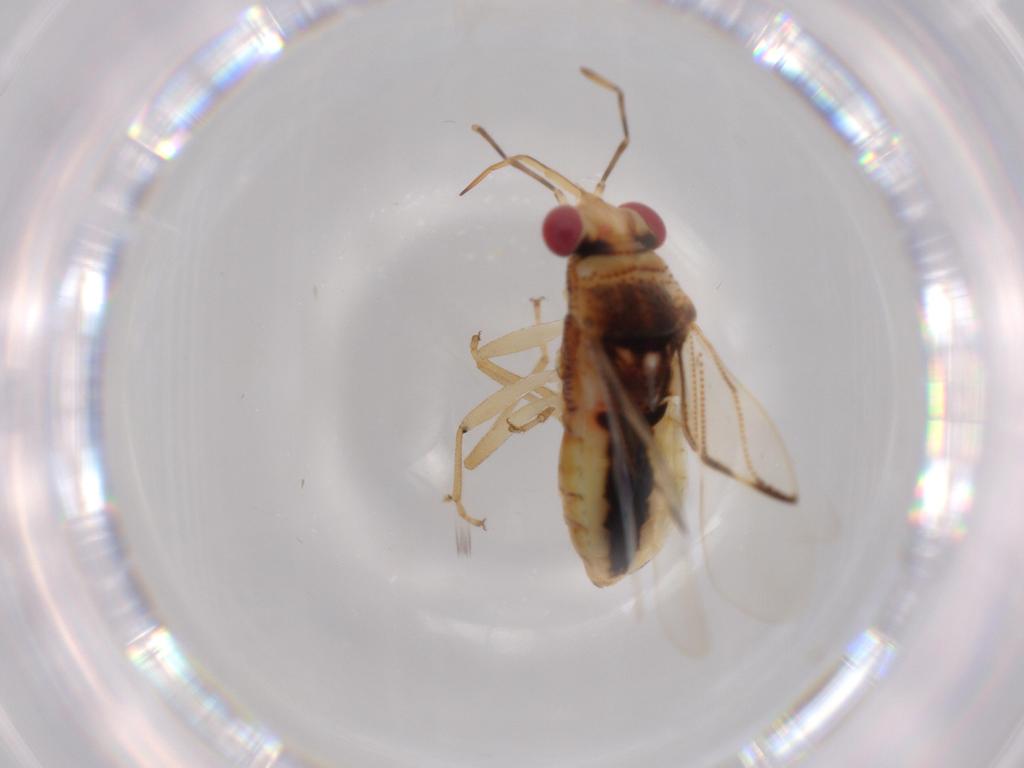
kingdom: Animalia
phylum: Arthropoda
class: Insecta
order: Hemiptera
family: Geocoridae
